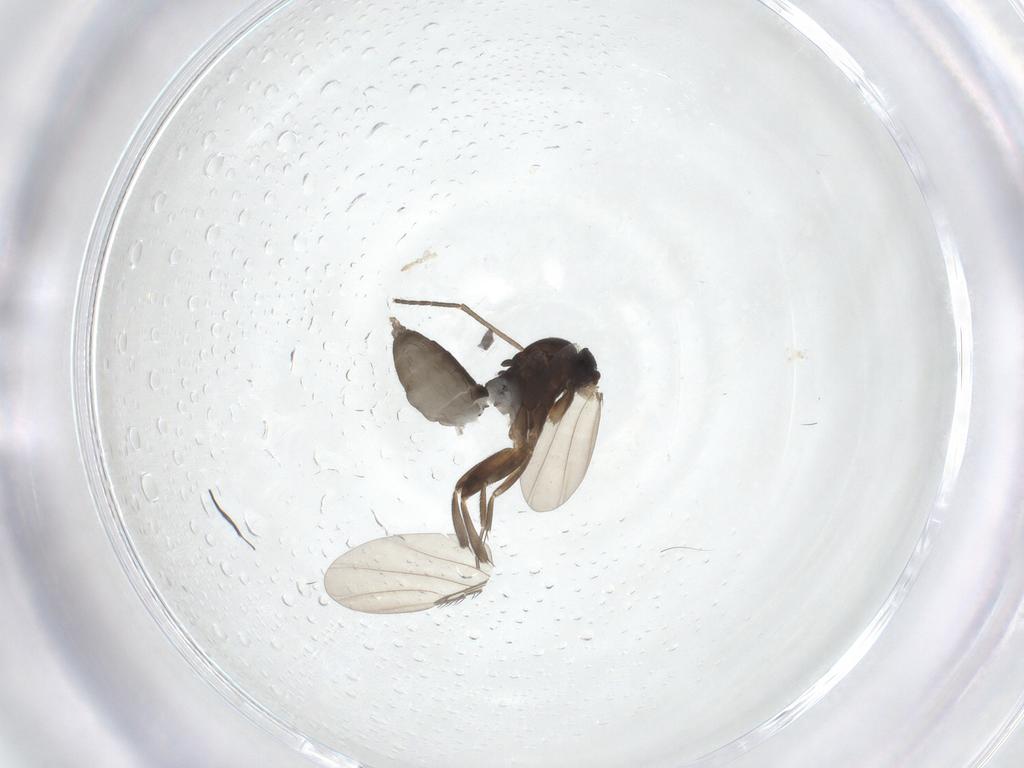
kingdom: Animalia
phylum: Arthropoda
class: Insecta
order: Diptera
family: Phoridae
